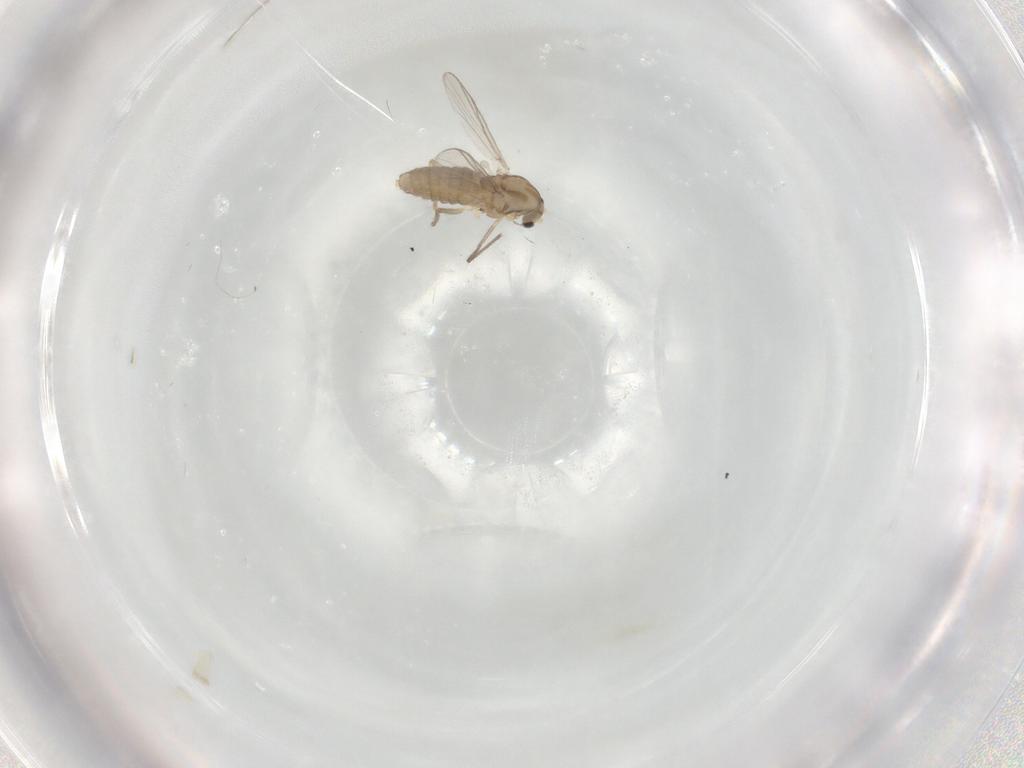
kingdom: Animalia
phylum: Arthropoda
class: Insecta
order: Diptera
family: Chironomidae
